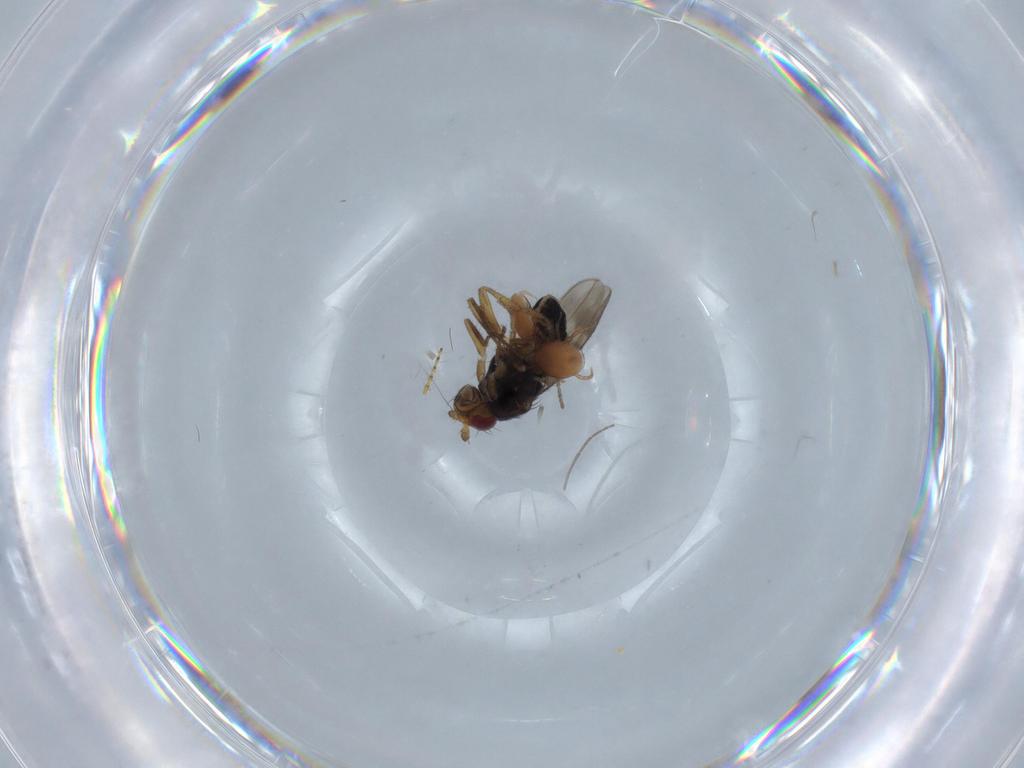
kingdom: Animalia
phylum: Arthropoda
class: Insecta
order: Diptera
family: Sphaeroceridae
